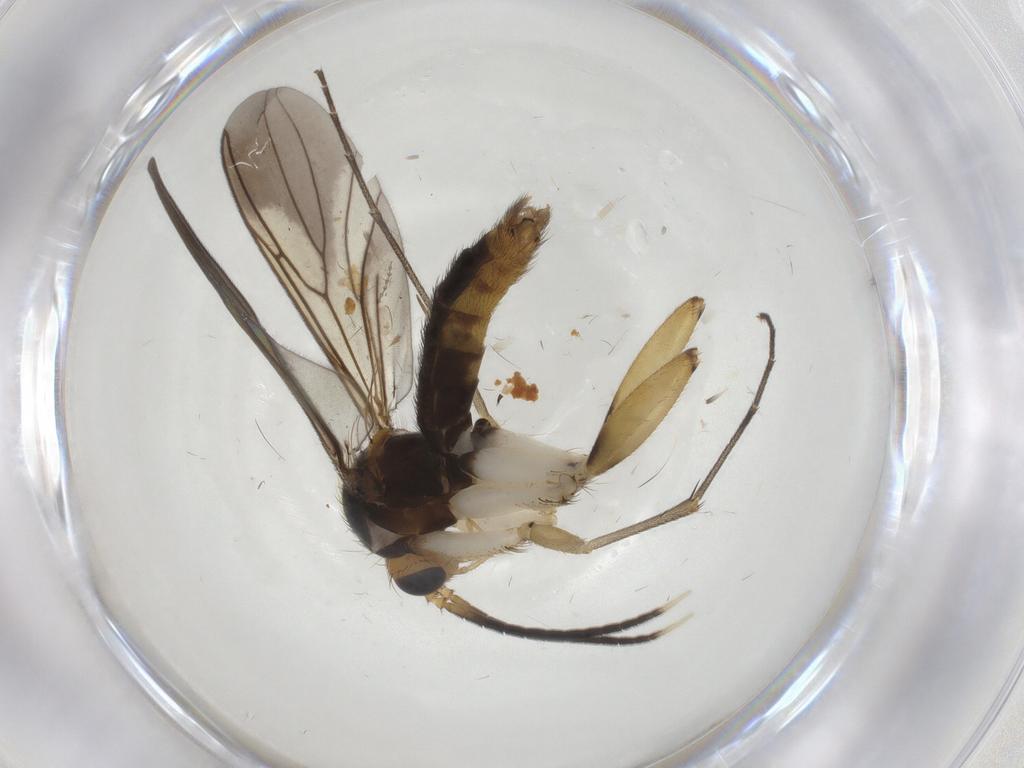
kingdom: Animalia
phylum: Arthropoda
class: Insecta
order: Diptera
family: Mycetophilidae
